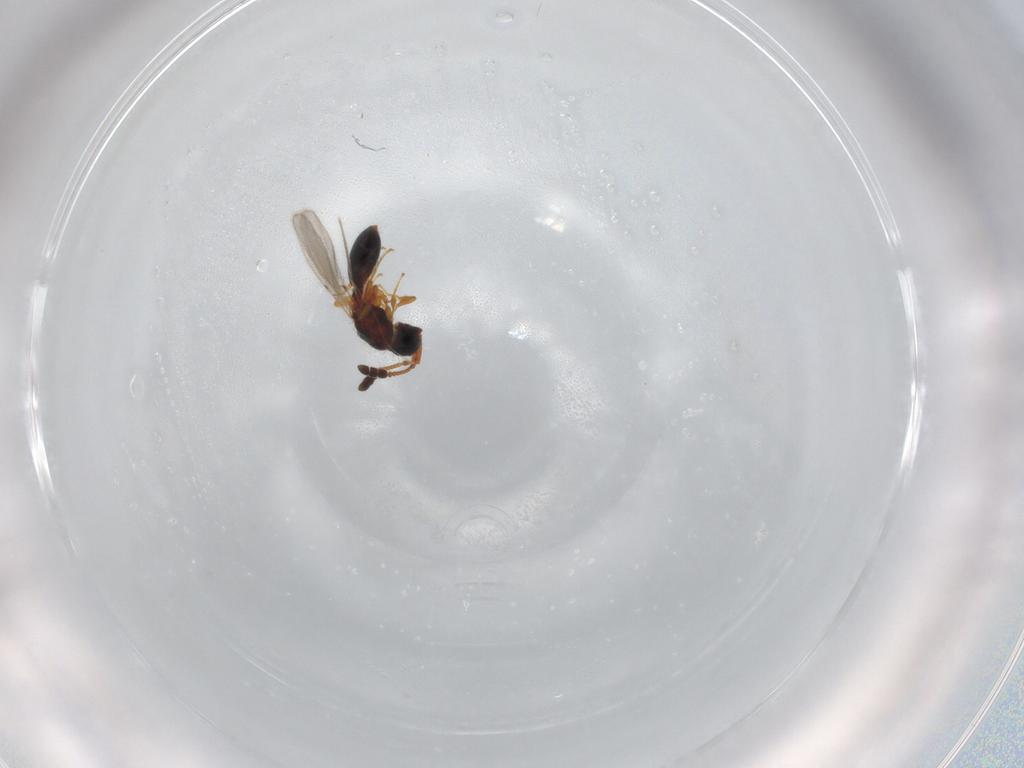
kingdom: Animalia
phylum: Arthropoda
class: Insecta
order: Hymenoptera
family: Diapriidae
